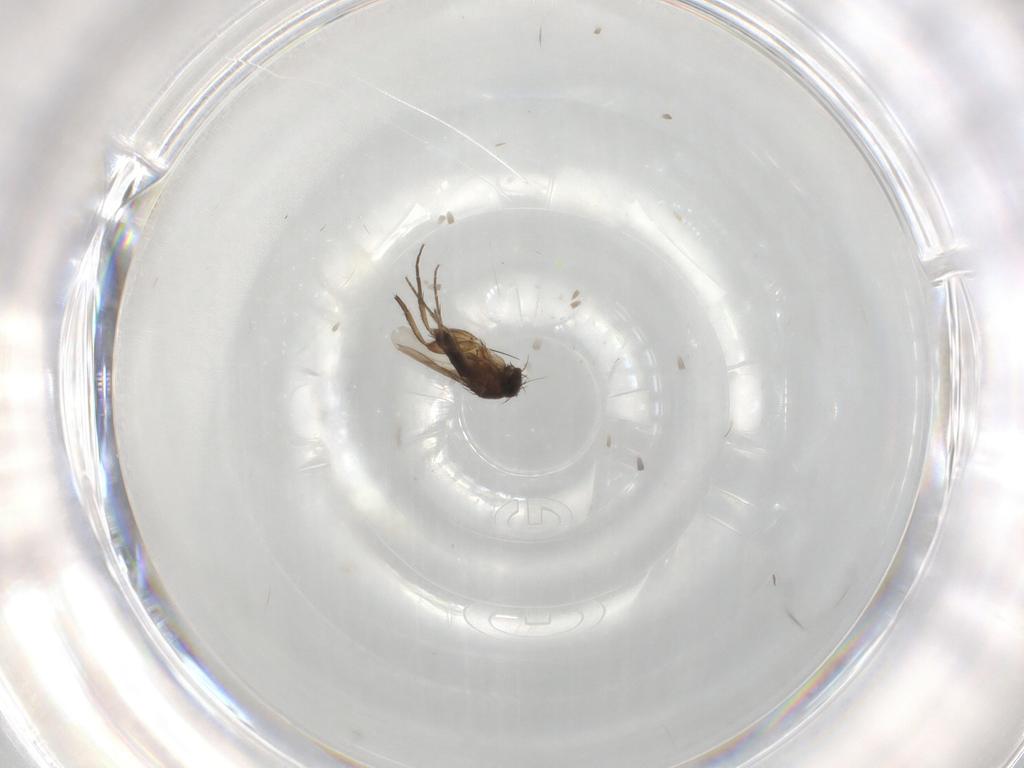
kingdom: Animalia
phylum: Arthropoda
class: Insecta
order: Diptera
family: Phoridae
